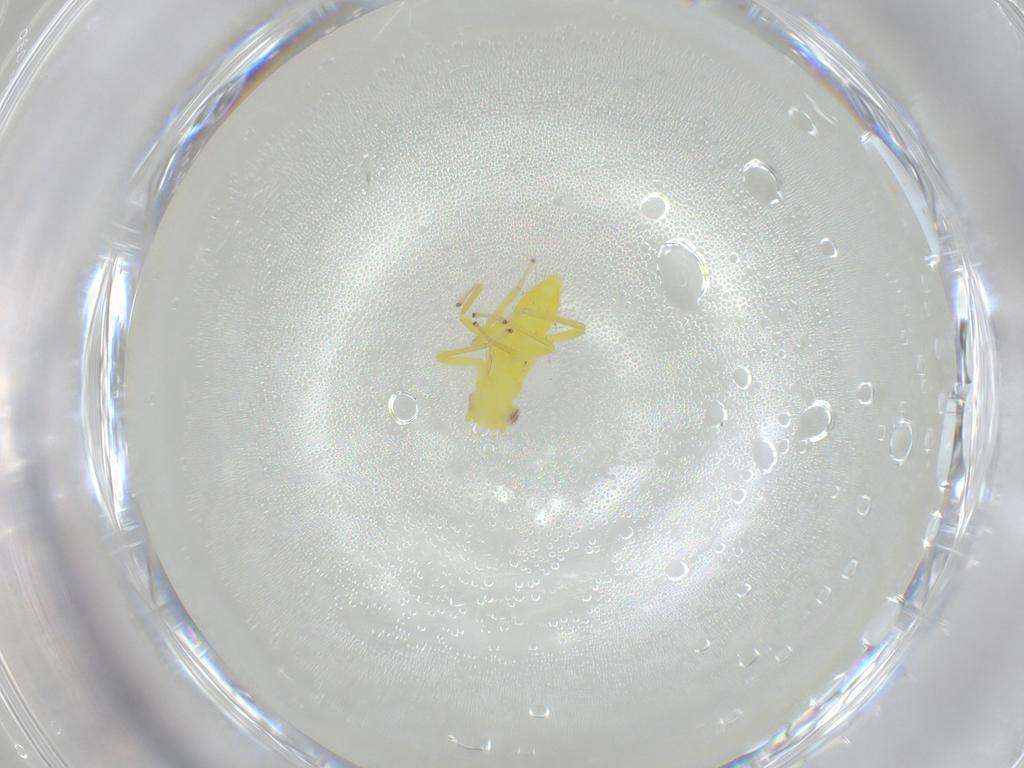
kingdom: Animalia
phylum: Arthropoda
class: Insecta
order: Hemiptera
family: Cicadellidae
